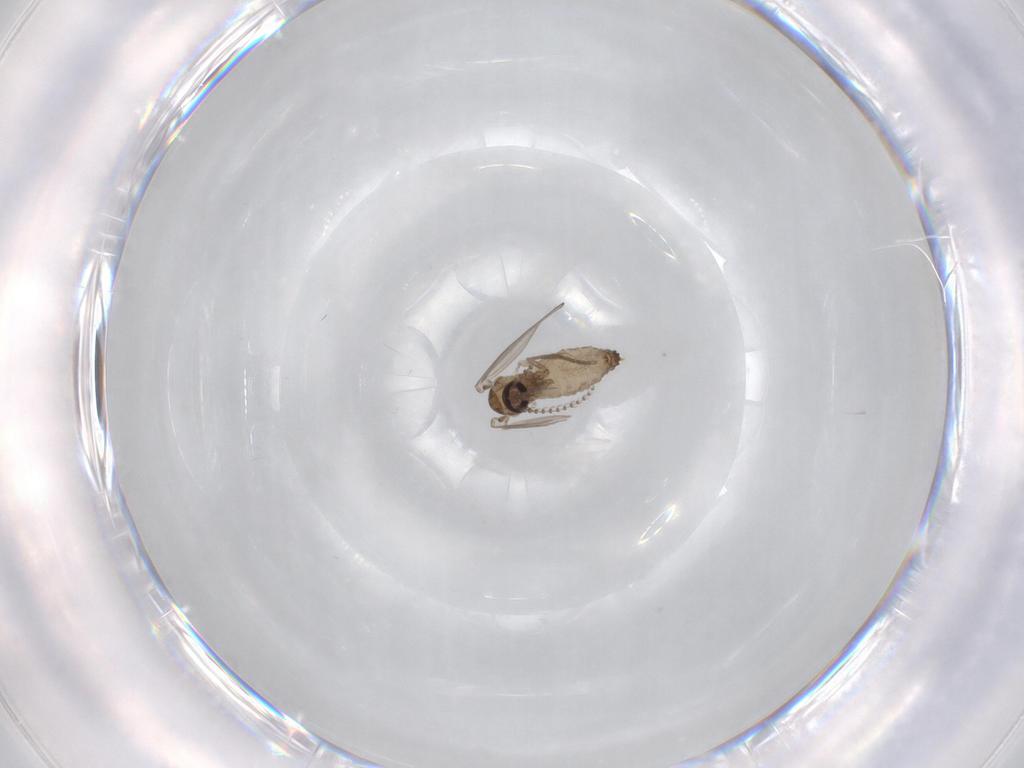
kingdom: Animalia
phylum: Arthropoda
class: Insecta
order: Diptera
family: Psychodidae
